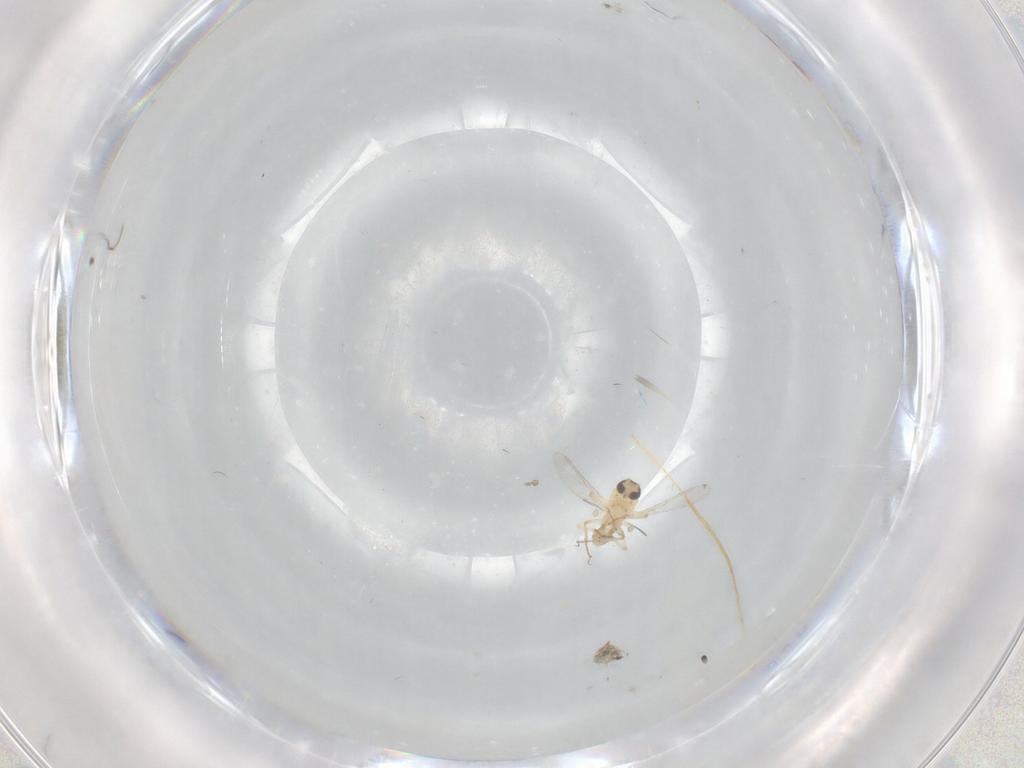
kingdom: Animalia
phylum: Arthropoda
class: Insecta
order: Diptera
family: Ceratopogonidae
